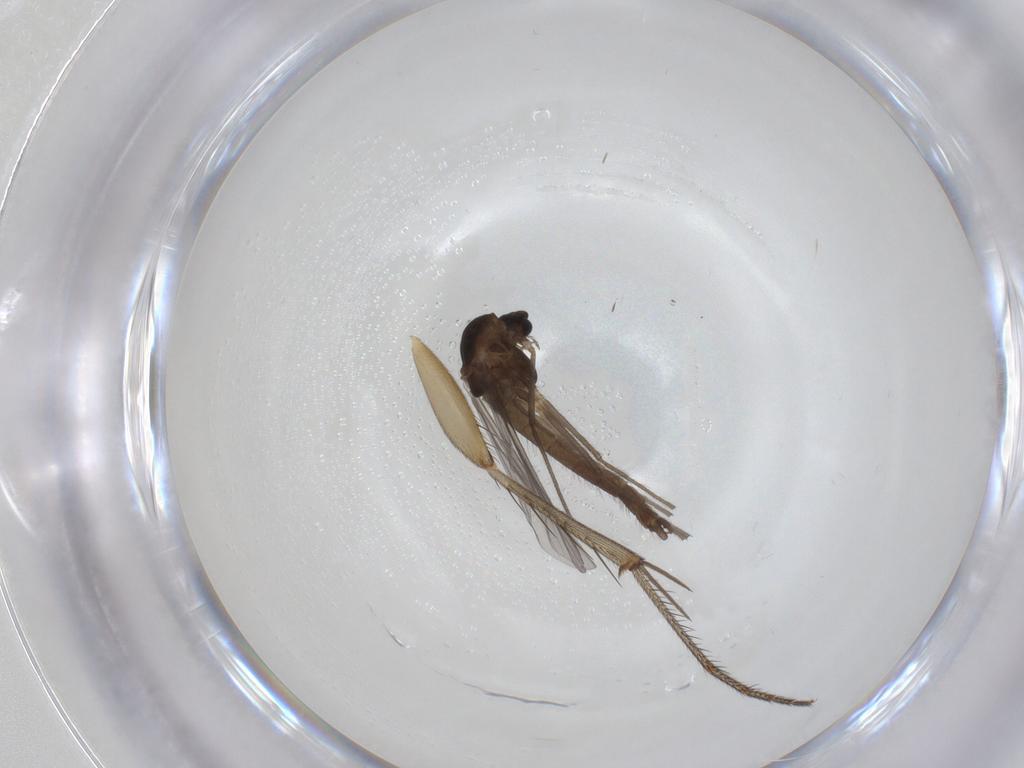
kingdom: Animalia
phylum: Arthropoda
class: Insecta
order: Diptera
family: Chironomidae
